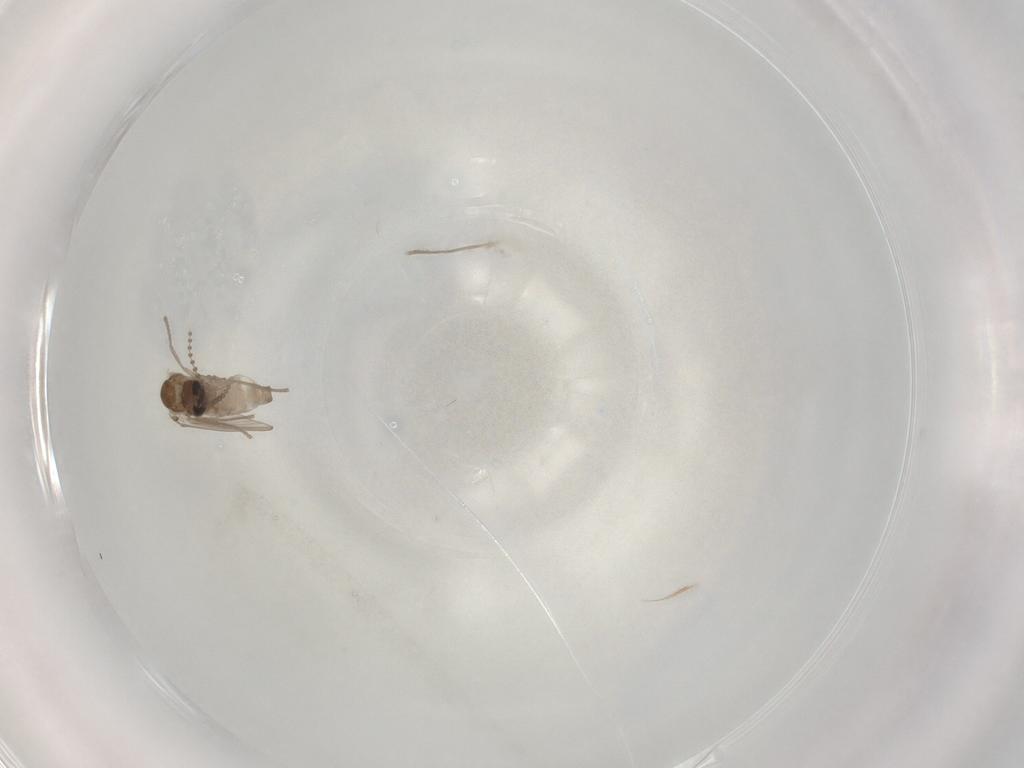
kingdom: Animalia
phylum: Arthropoda
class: Insecta
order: Diptera
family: Psychodidae
